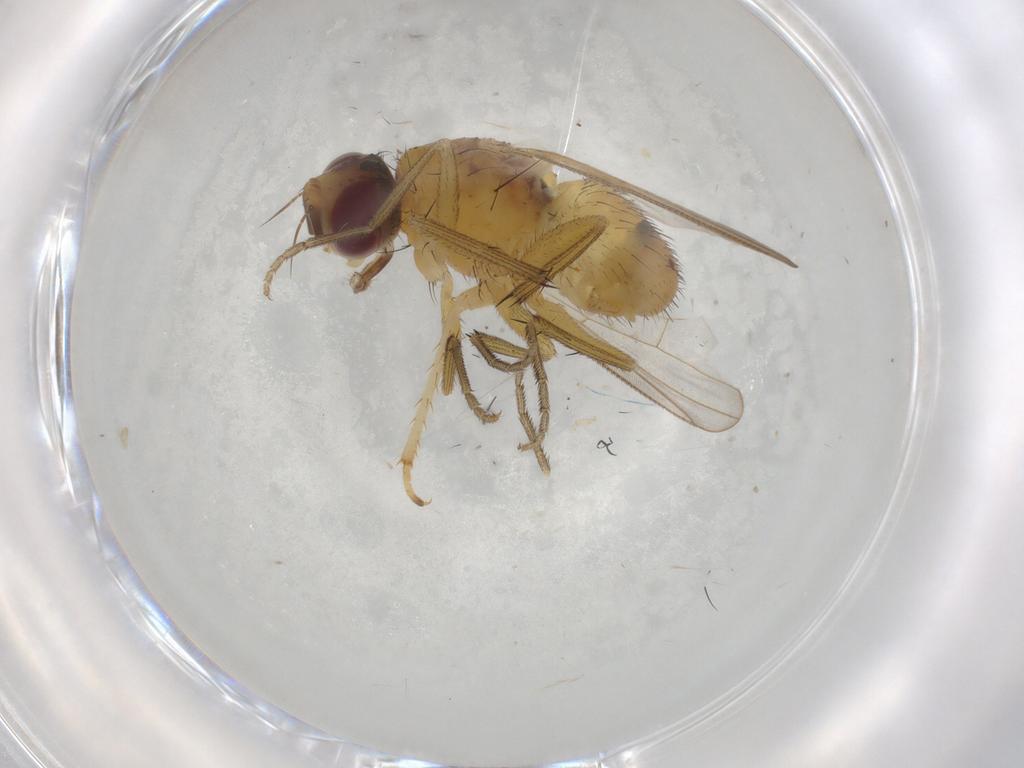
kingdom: Animalia
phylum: Arthropoda
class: Insecta
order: Diptera
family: Muscidae
